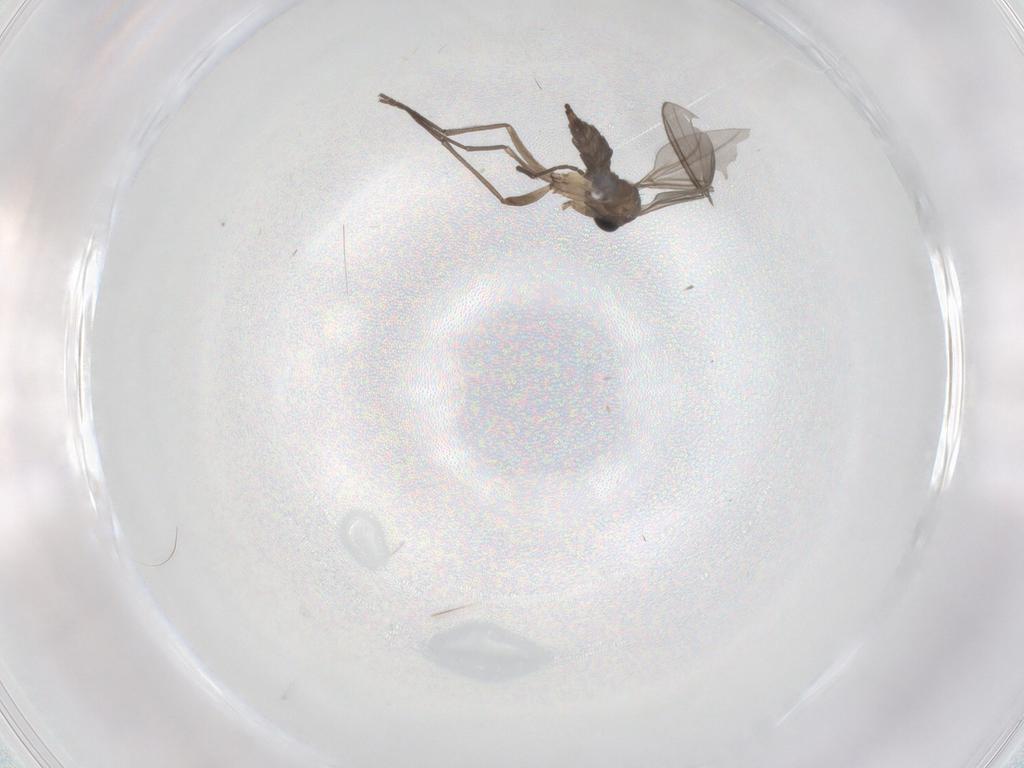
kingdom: Animalia
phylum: Arthropoda
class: Insecta
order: Diptera
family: Sciaridae
